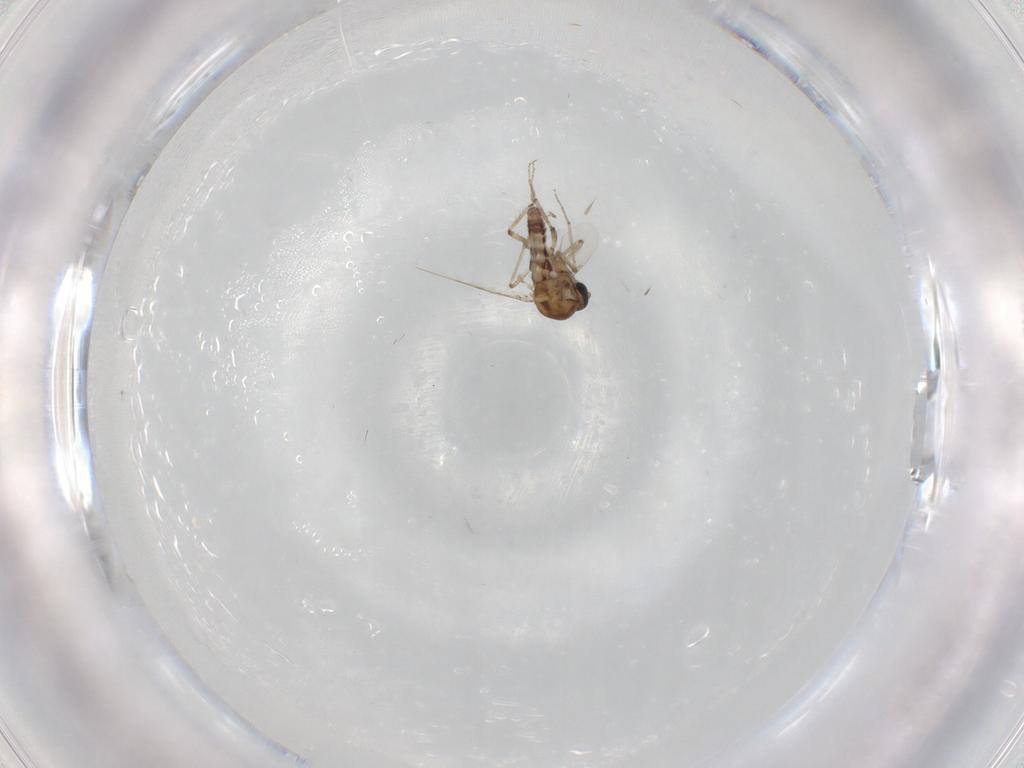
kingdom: Animalia
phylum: Arthropoda
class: Insecta
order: Diptera
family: Ceratopogonidae
